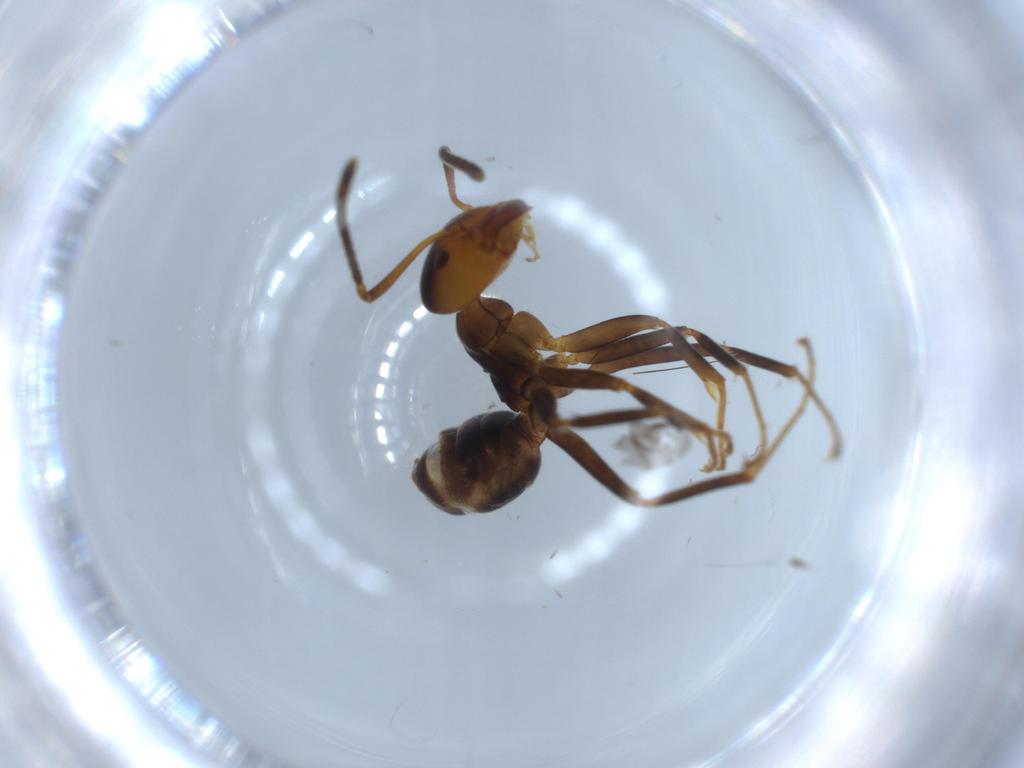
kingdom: Animalia
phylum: Arthropoda
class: Insecta
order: Hymenoptera
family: Formicidae
